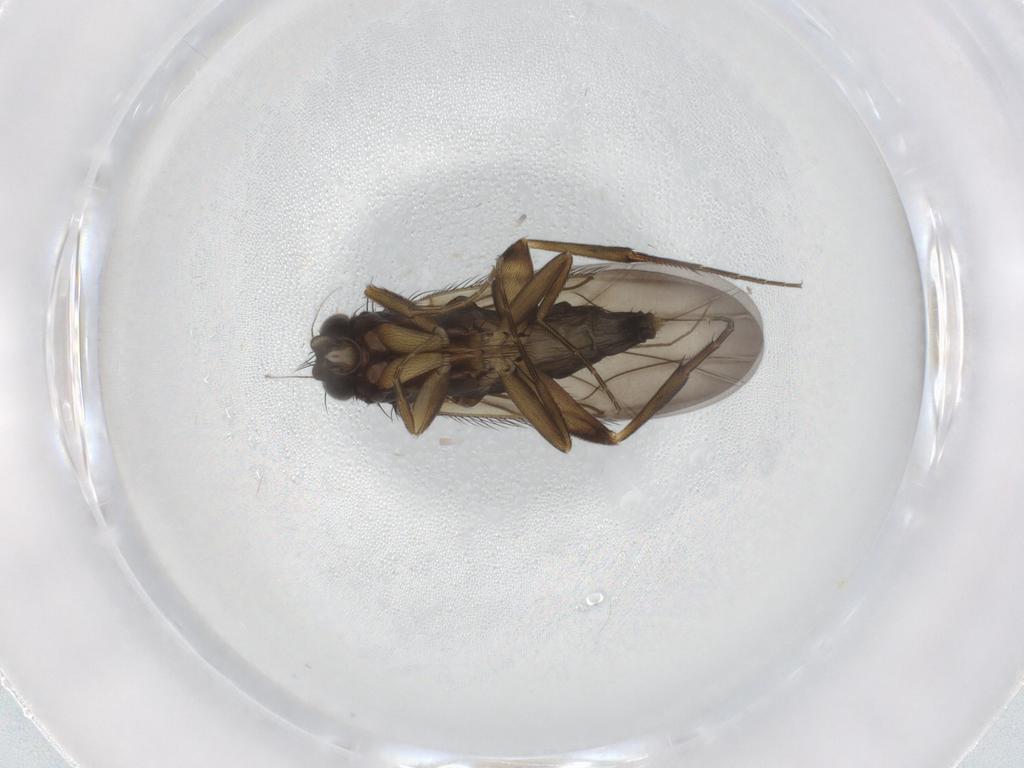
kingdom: Animalia
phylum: Arthropoda
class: Insecta
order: Diptera
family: Phoridae
